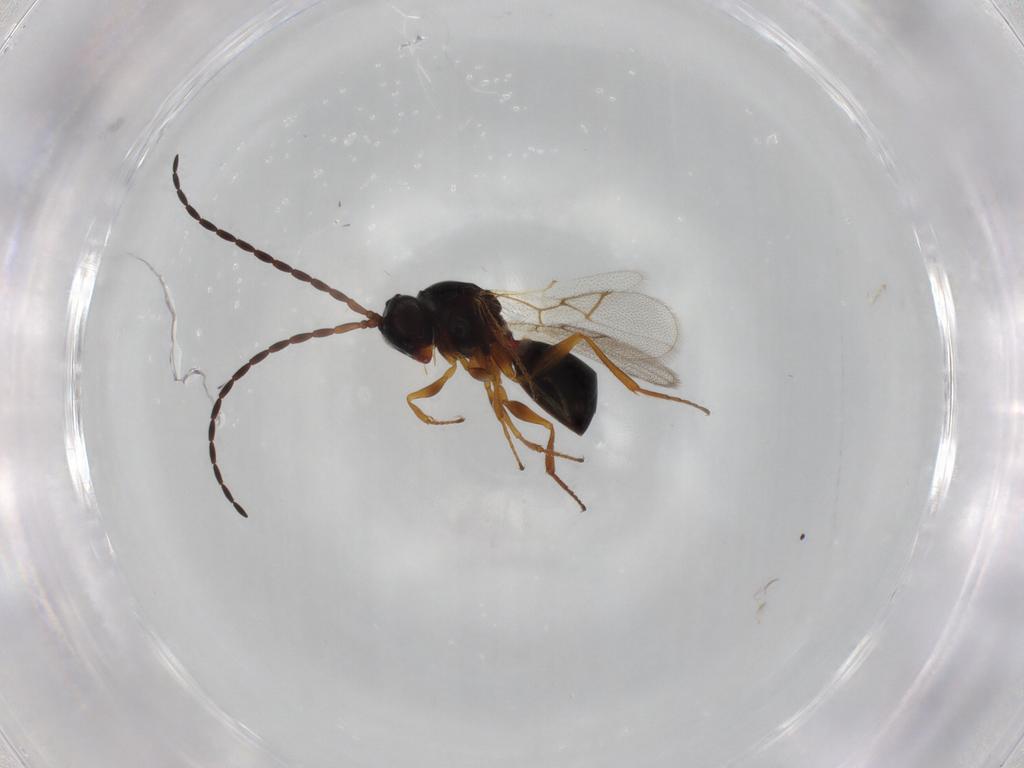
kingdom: Animalia
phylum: Arthropoda
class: Insecta
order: Hymenoptera
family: Figitidae
